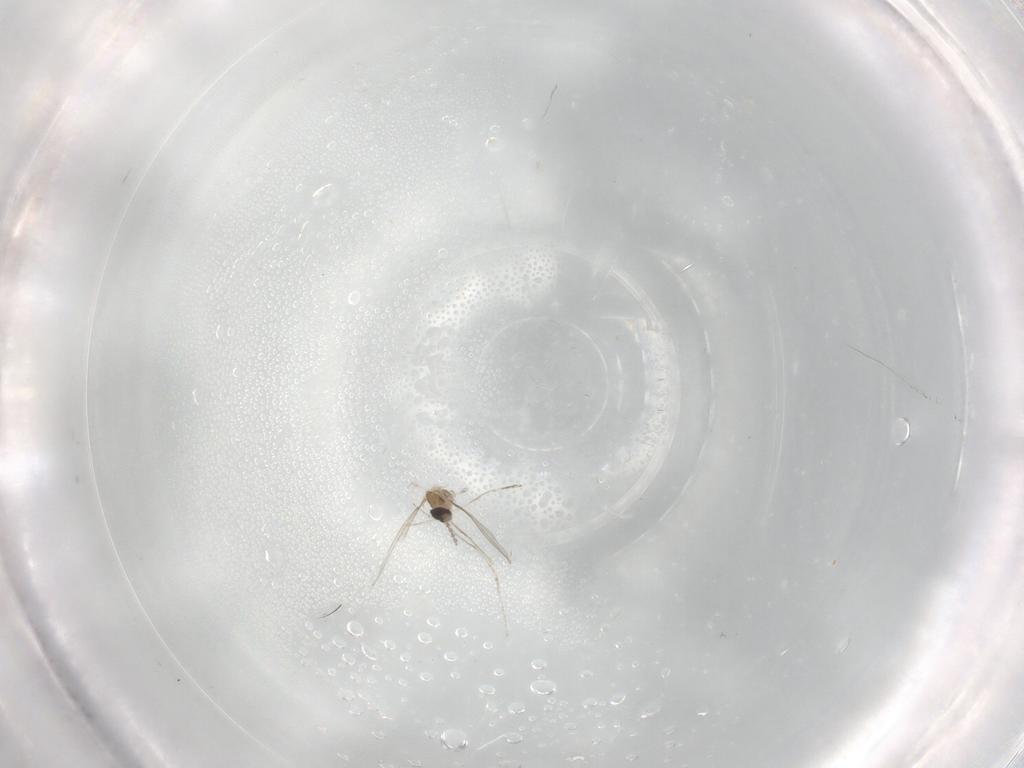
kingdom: Animalia
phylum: Arthropoda
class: Insecta
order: Diptera
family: Cecidomyiidae
